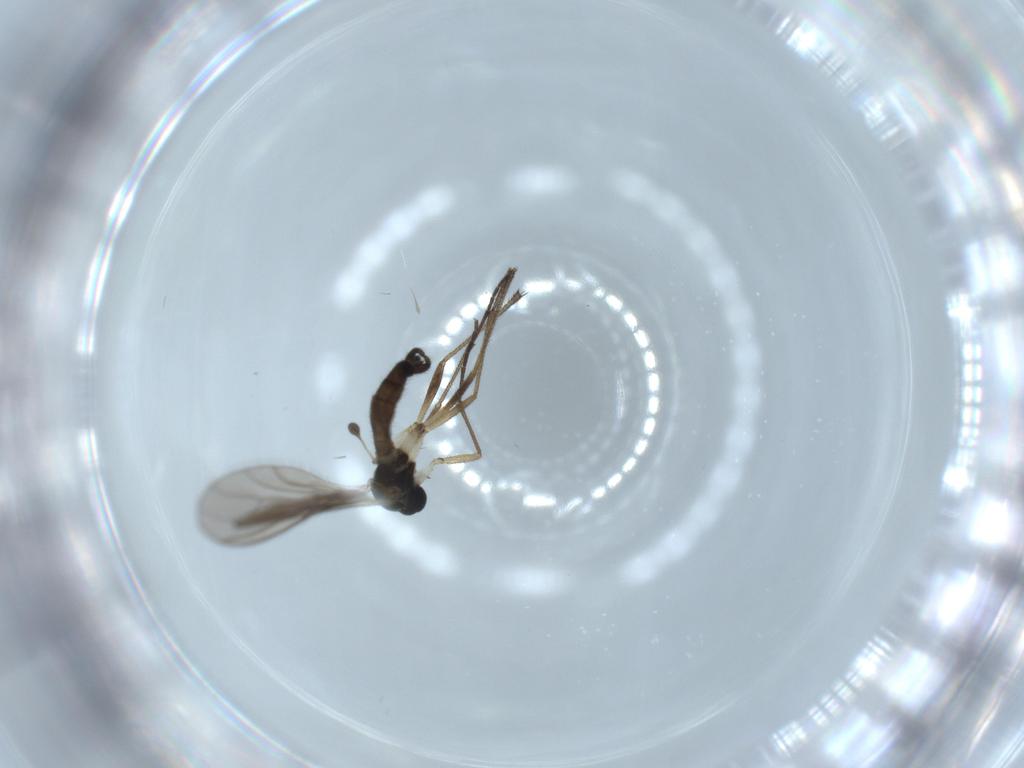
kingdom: Animalia
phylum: Arthropoda
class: Insecta
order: Diptera
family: Sciaridae
